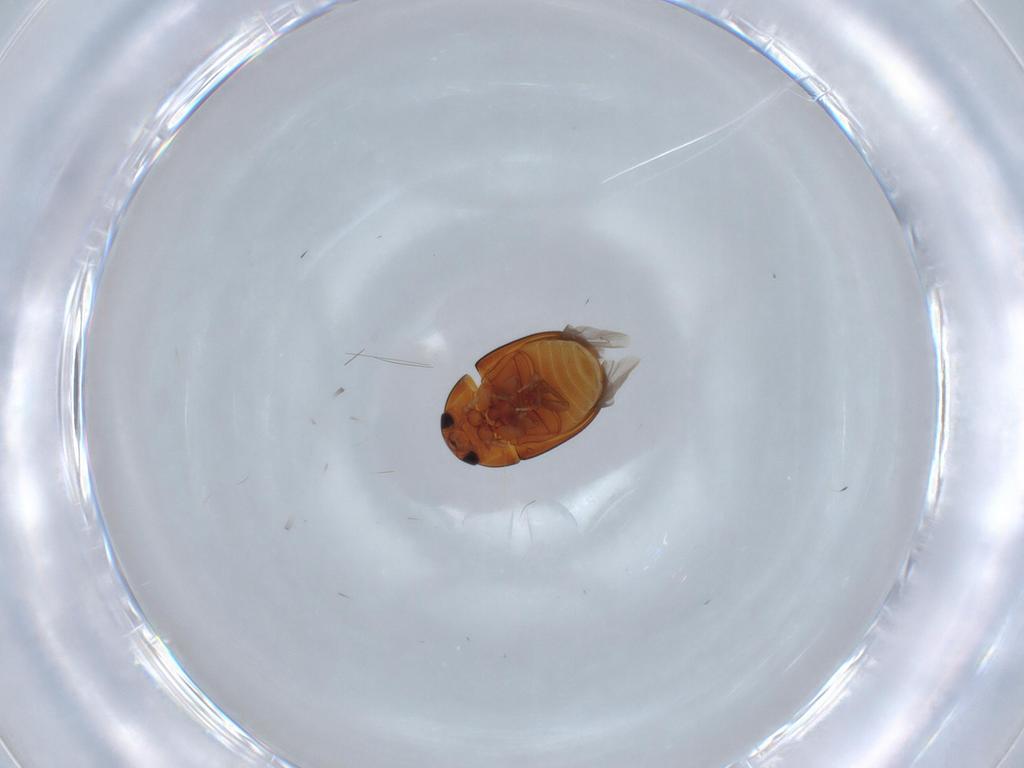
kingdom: Animalia
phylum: Arthropoda
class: Insecta
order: Coleoptera
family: Phalacridae
